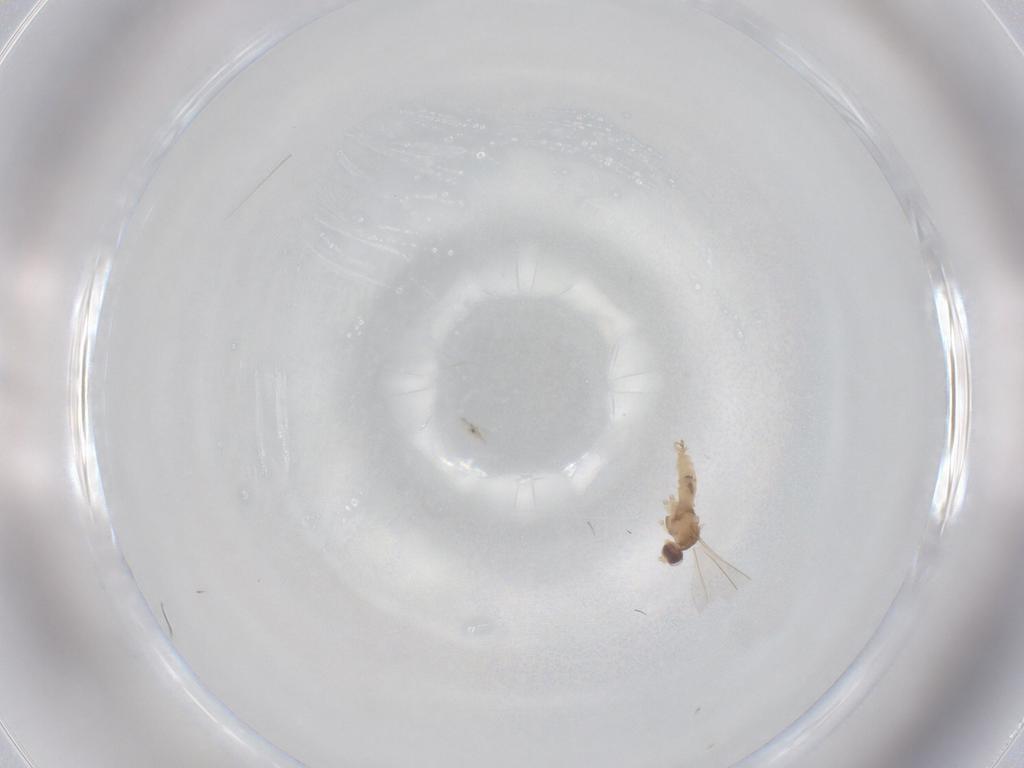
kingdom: Animalia
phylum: Arthropoda
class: Insecta
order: Diptera
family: Cecidomyiidae
